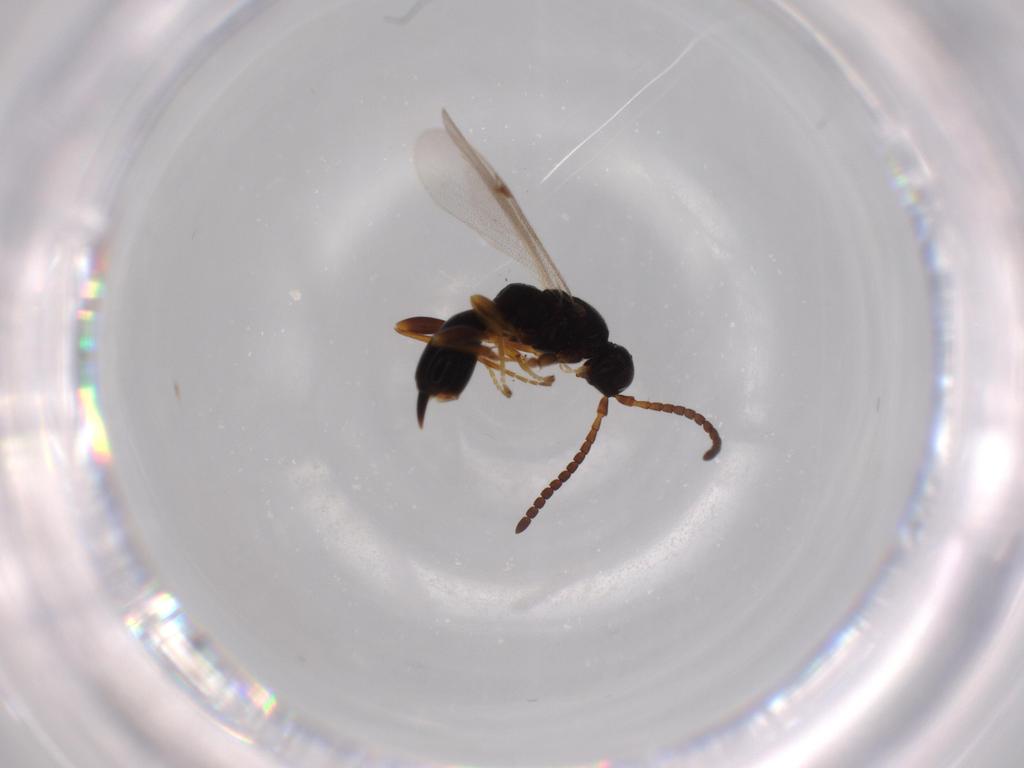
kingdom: Animalia
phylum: Arthropoda
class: Insecta
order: Hymenoptera
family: Proctotrupidae
